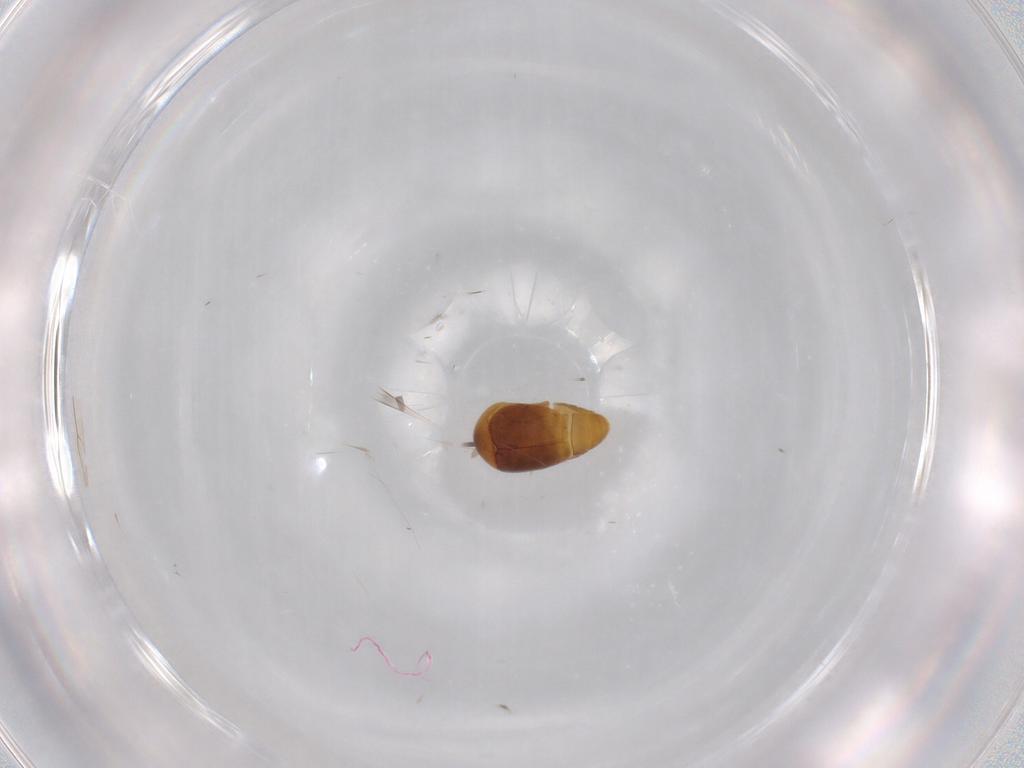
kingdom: Animalia
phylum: Arthropoda
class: Insecta
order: Coleoptera
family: Corylophidae
